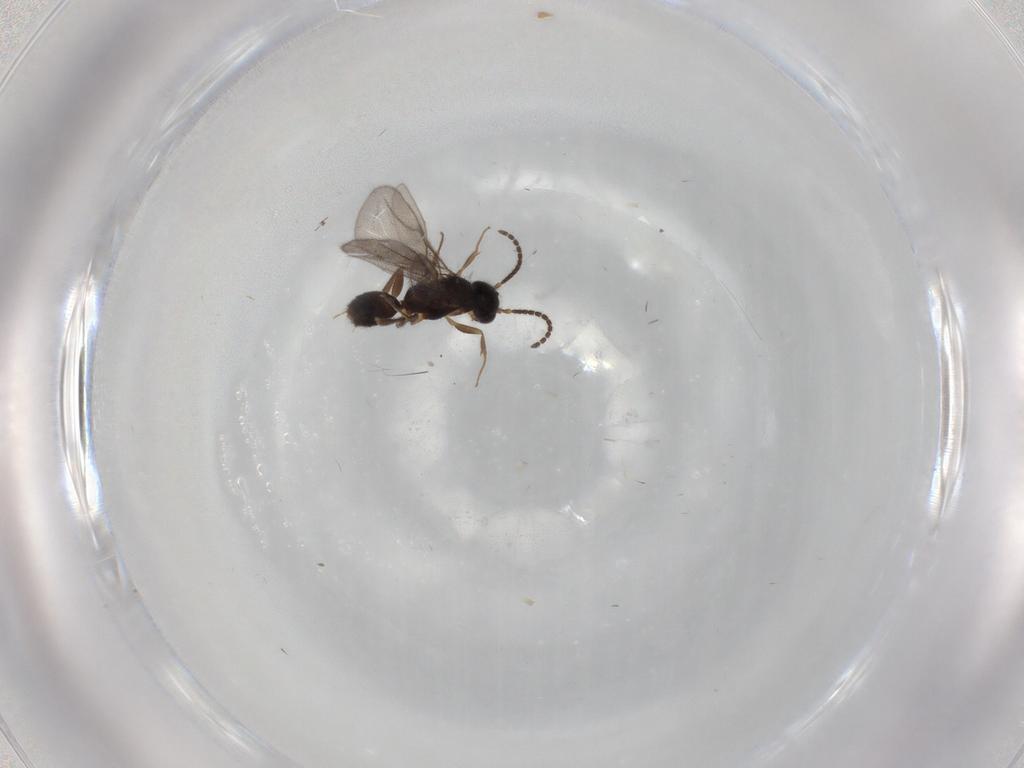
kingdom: Animalia
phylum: Arthropoda
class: Insecta
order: Hymenoptera
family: Bethylidae
